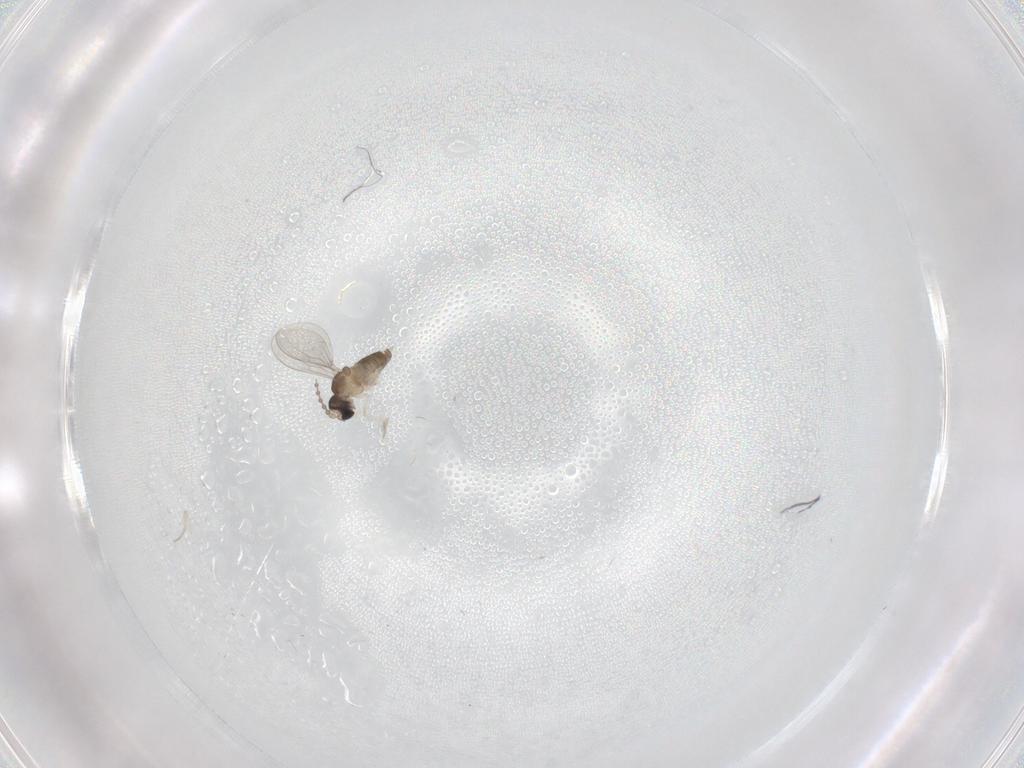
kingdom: Animalia
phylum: Arthropoda
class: Insecta
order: Diptera
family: Cecidomyiidae
